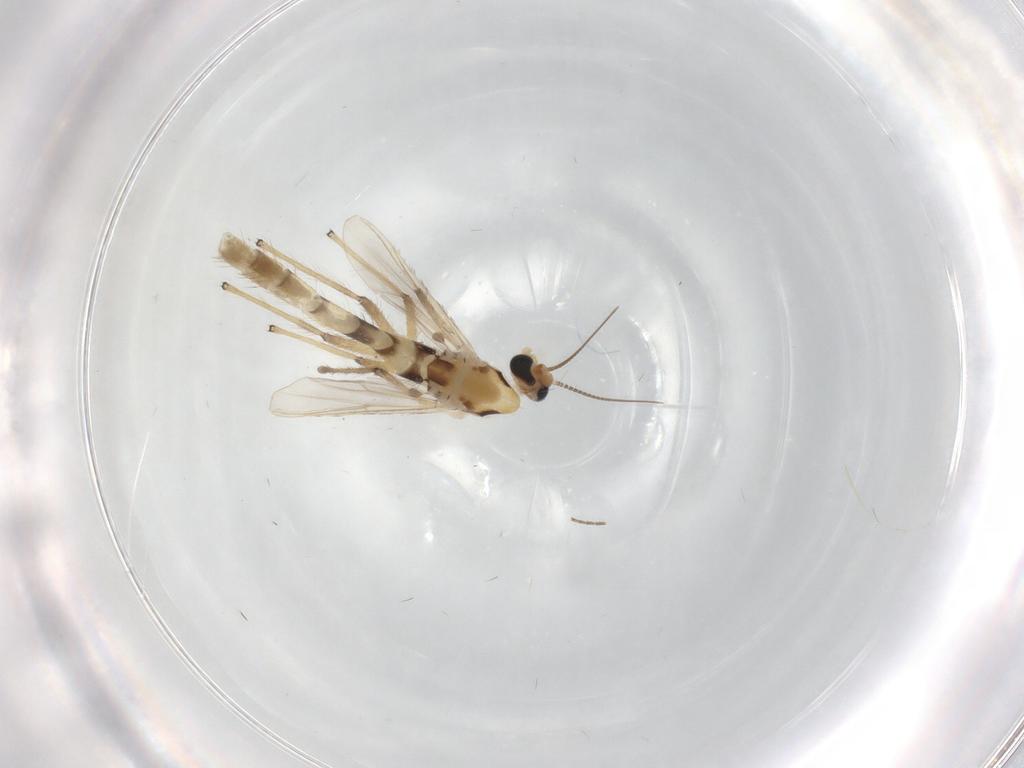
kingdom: Animalia
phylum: Arthropoda
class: Insecta
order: Diptera
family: Chironomidae
